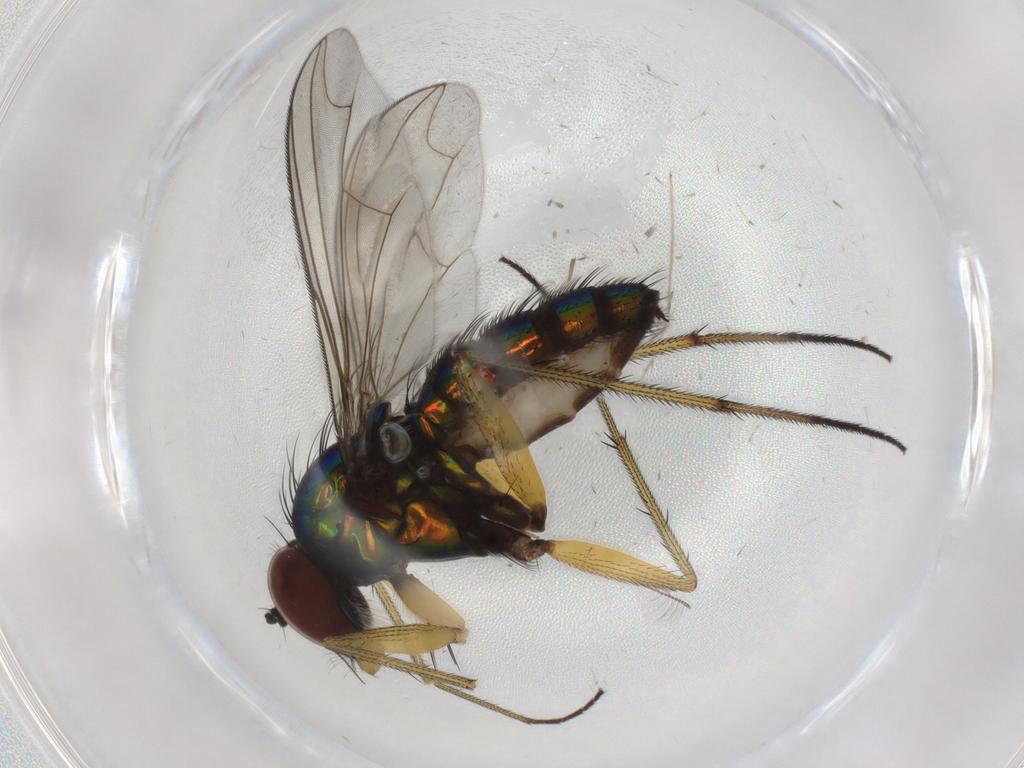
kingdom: Animalia
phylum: Arthropoda
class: Insecta
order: Diptera
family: Dolichopodidae
